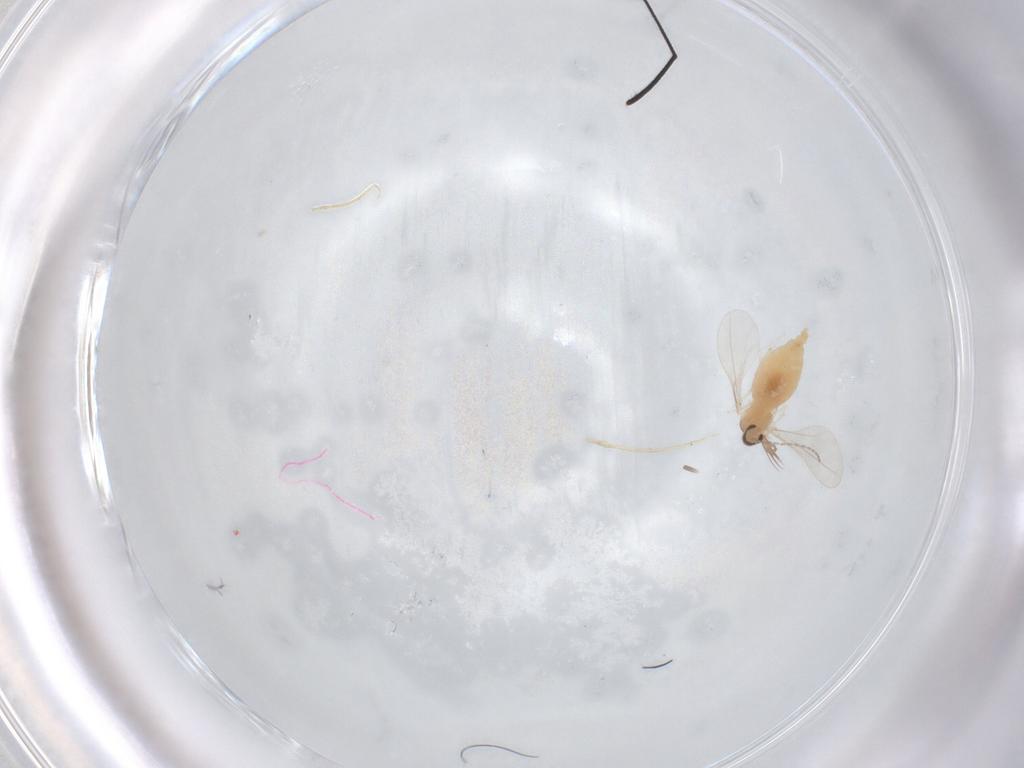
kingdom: Animalia
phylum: Arthropoda
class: Insecta
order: Diptera
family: Cecidomyiidae
